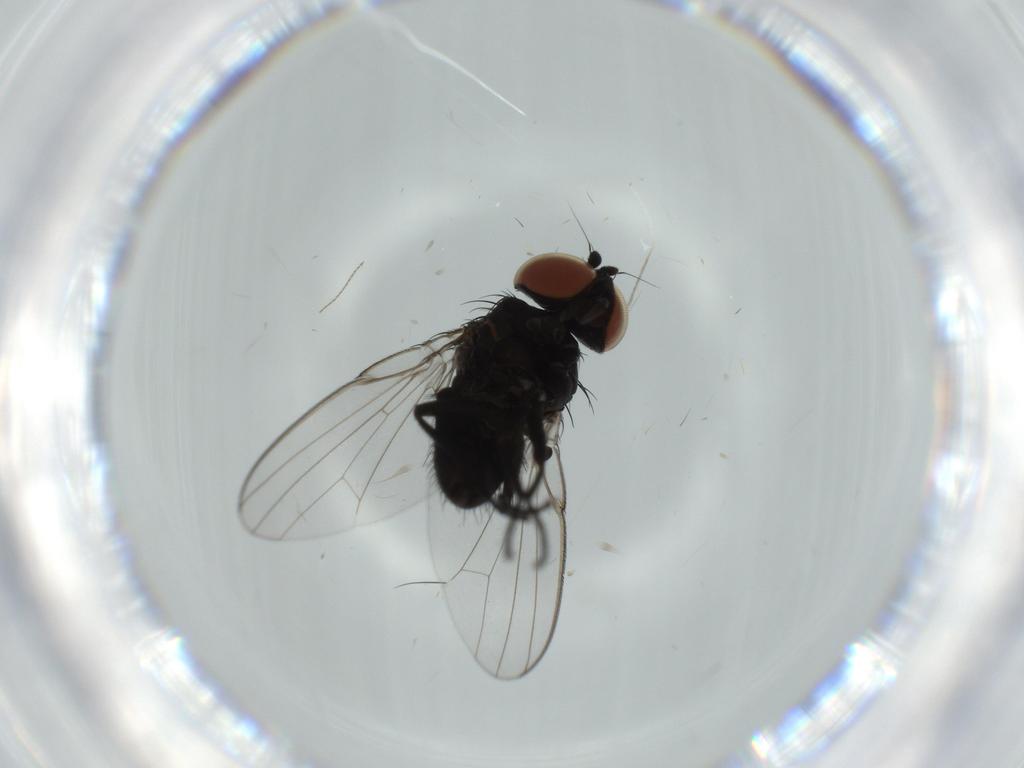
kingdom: Animalia
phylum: Arthropoda
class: Insecta
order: Diptera
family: Milichiidae
